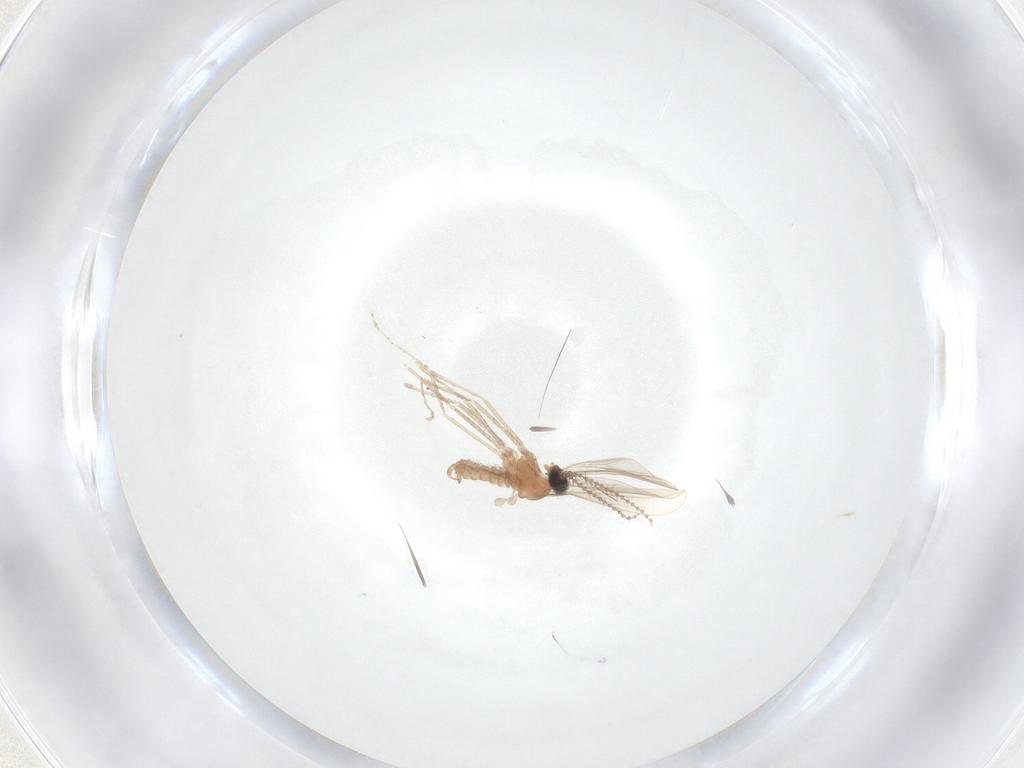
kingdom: Animalia
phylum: Arthropoda
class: Insecta
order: Diptera
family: Cecidomyiidae
